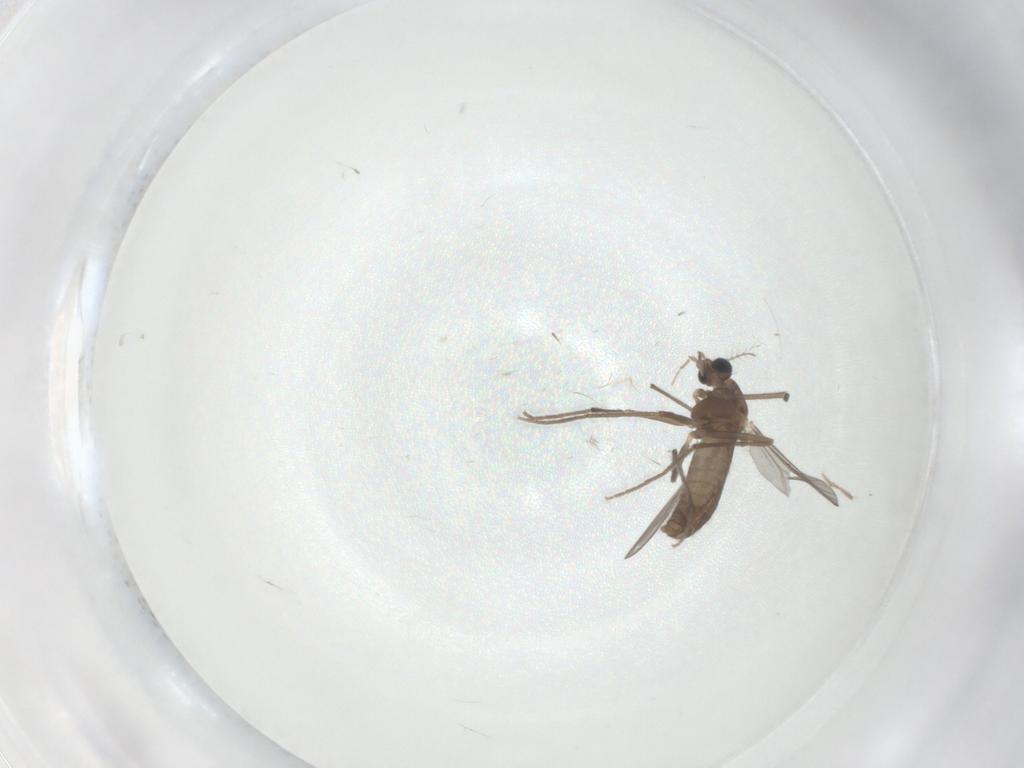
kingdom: Animalia
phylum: Arthropoda
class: Insecta
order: Diptera
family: Chironomidae
